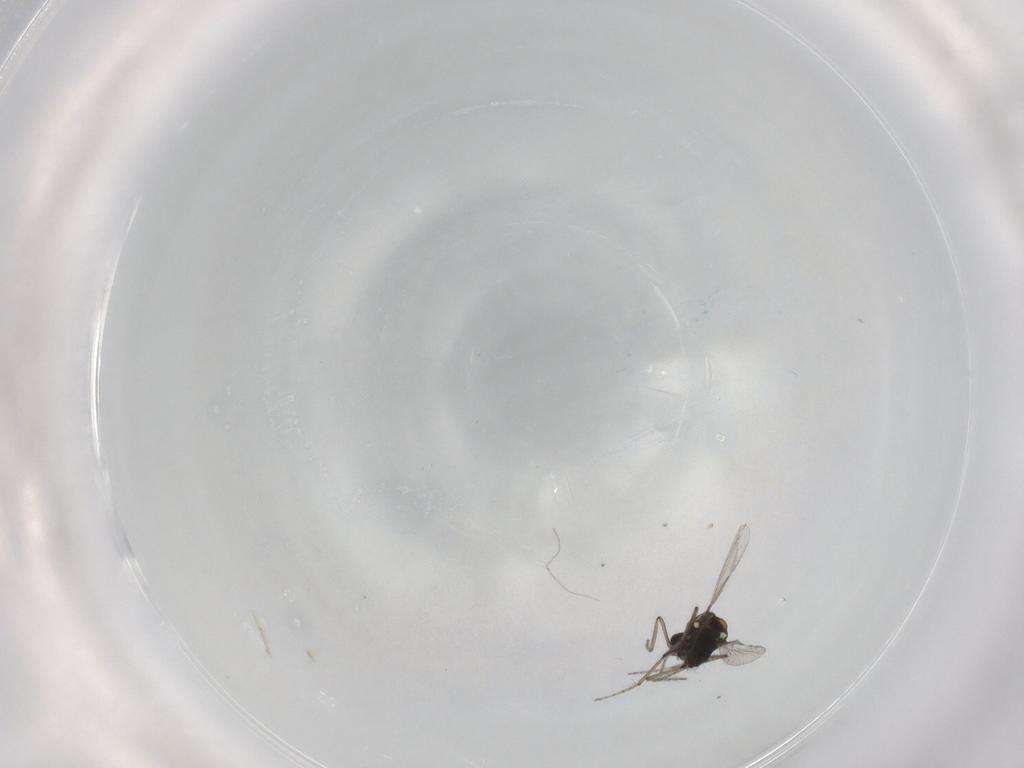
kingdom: Animalia
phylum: Arthropoda
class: Insecta
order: Diptera
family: Ceratopogonidae
